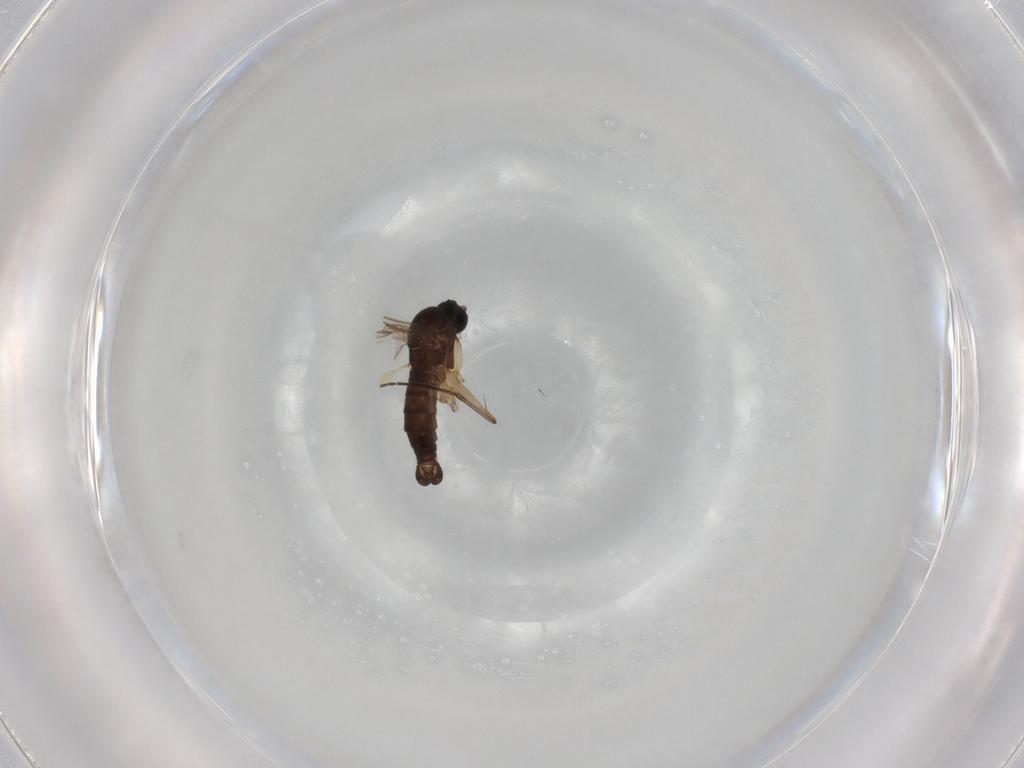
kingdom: Animalia
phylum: Arthropoda
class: Insecta
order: Diptera
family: Sciaridae
